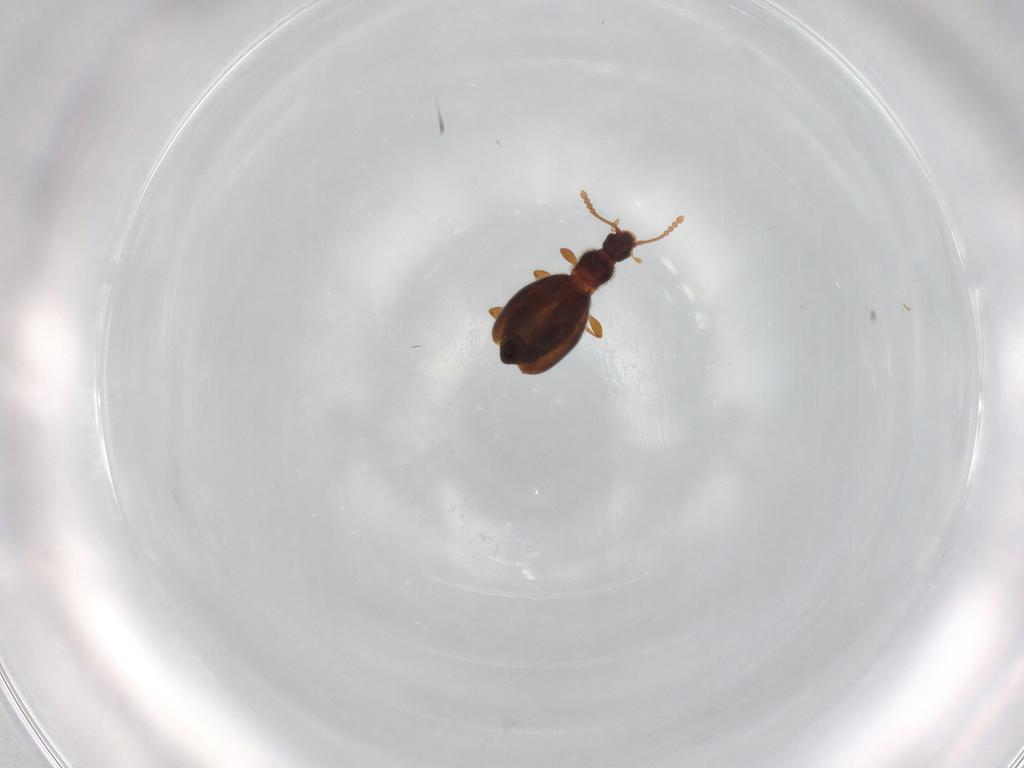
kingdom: Animalia
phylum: Arthropoda
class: Insecta
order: Coleoptera
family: Staphylinidae
